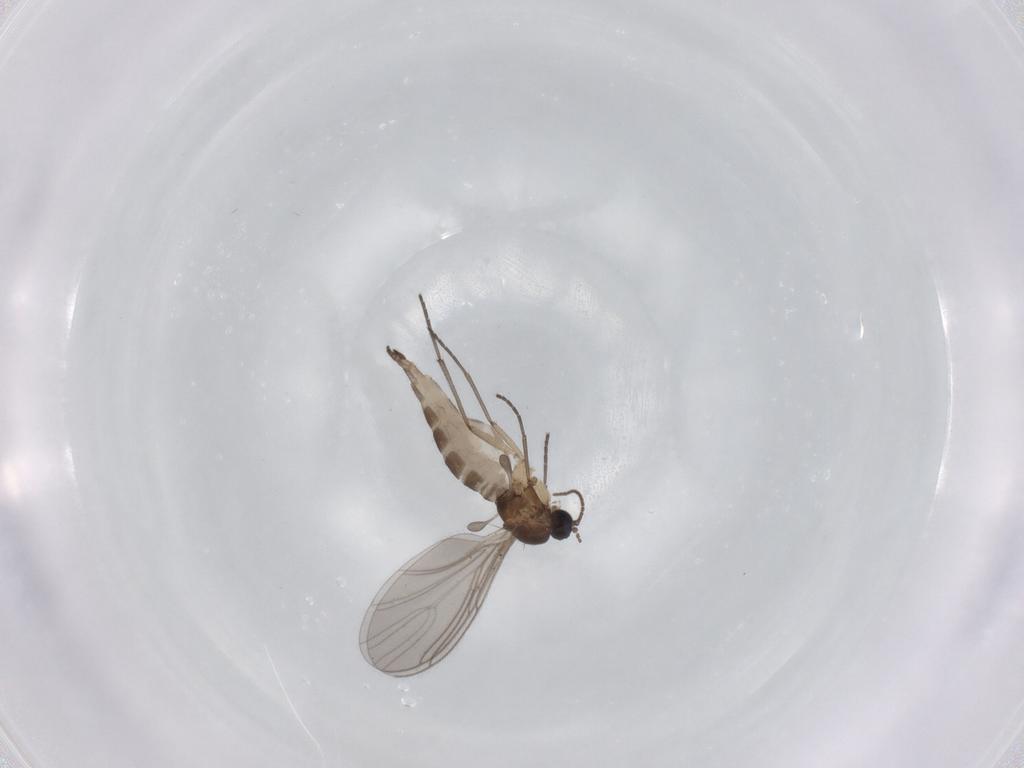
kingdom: Animalia
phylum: Arthropoda
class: Insecta
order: Diptera
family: Sciaridae
